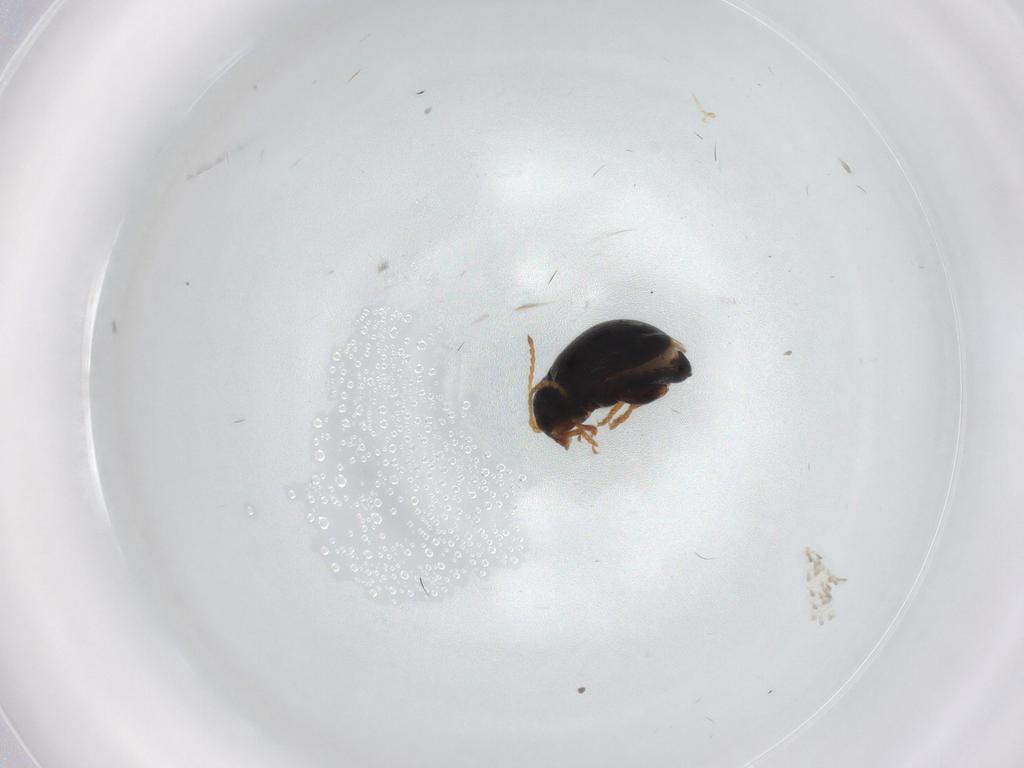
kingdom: Animalia
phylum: Arthropoda
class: Insecta
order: Coleoptera
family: Chrysomelidae
